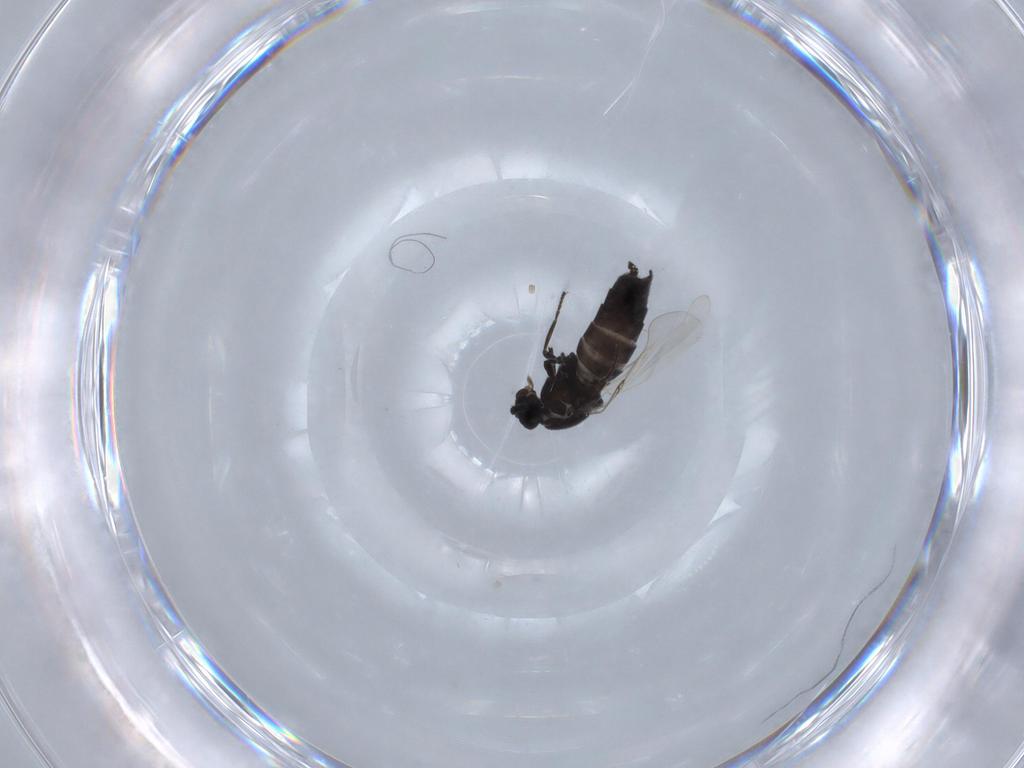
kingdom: Animalia
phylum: Arthropoda
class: Insecta
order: Diptera
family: Scatopsidae
